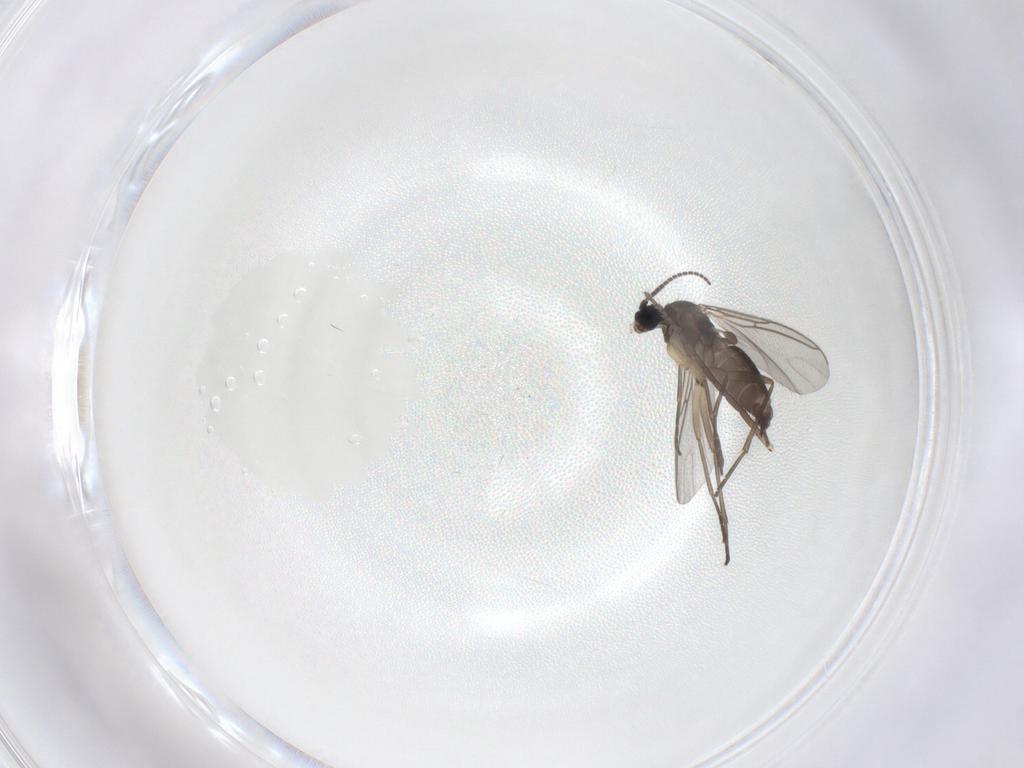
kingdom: Animalia
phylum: Arthropoda
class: Insecta
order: Diptera
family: Sciaridae
